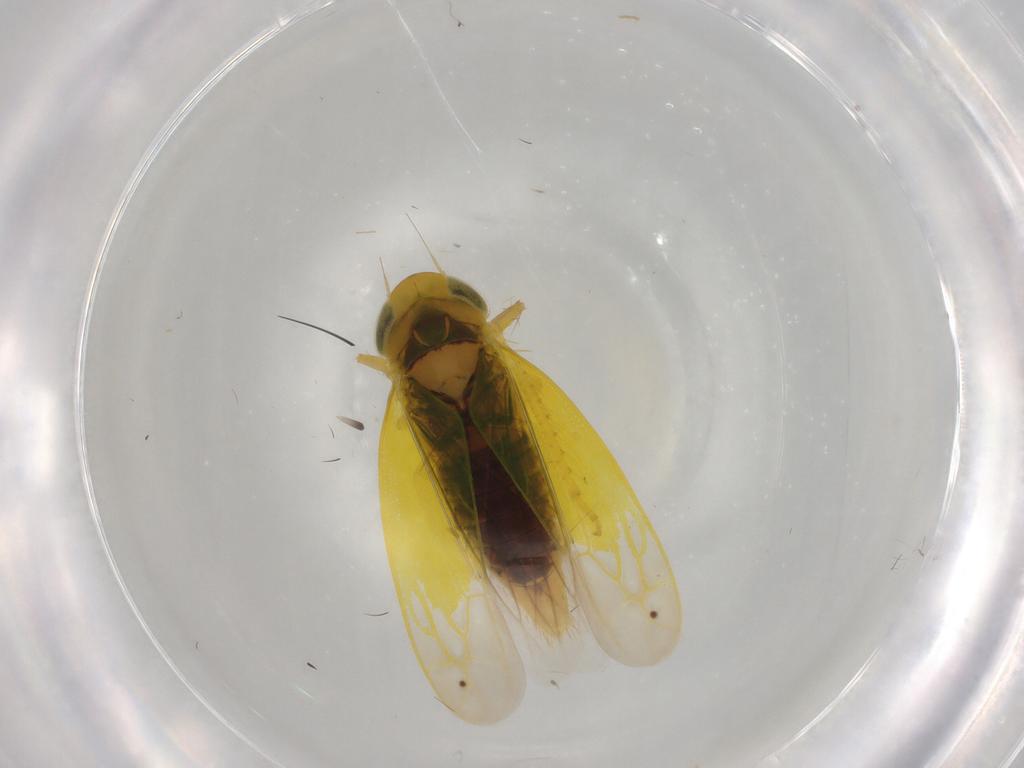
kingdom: Animalia
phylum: Arthropoda
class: Insecta
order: Hemiptera
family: Cicadellidae
